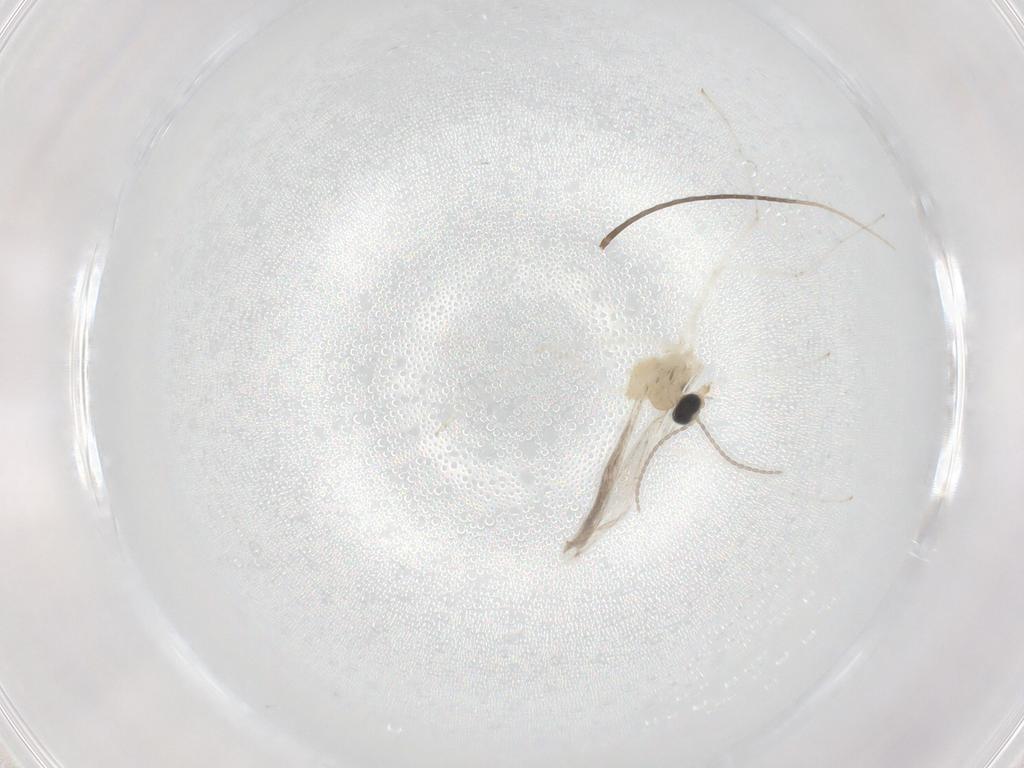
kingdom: Animalia
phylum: Arthropoda
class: Insecta
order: Diptera
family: Cecidomyiidae
